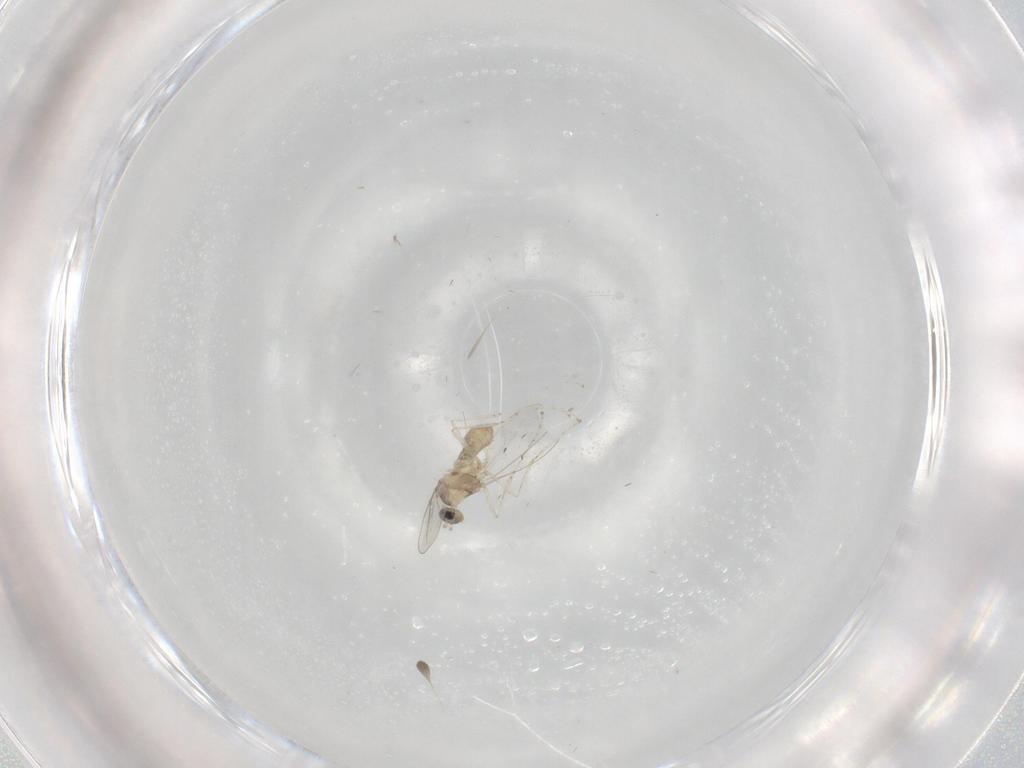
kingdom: Animalia
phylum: Arthropoda
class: Insecta
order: Diptera
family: Cecidomyiidae
